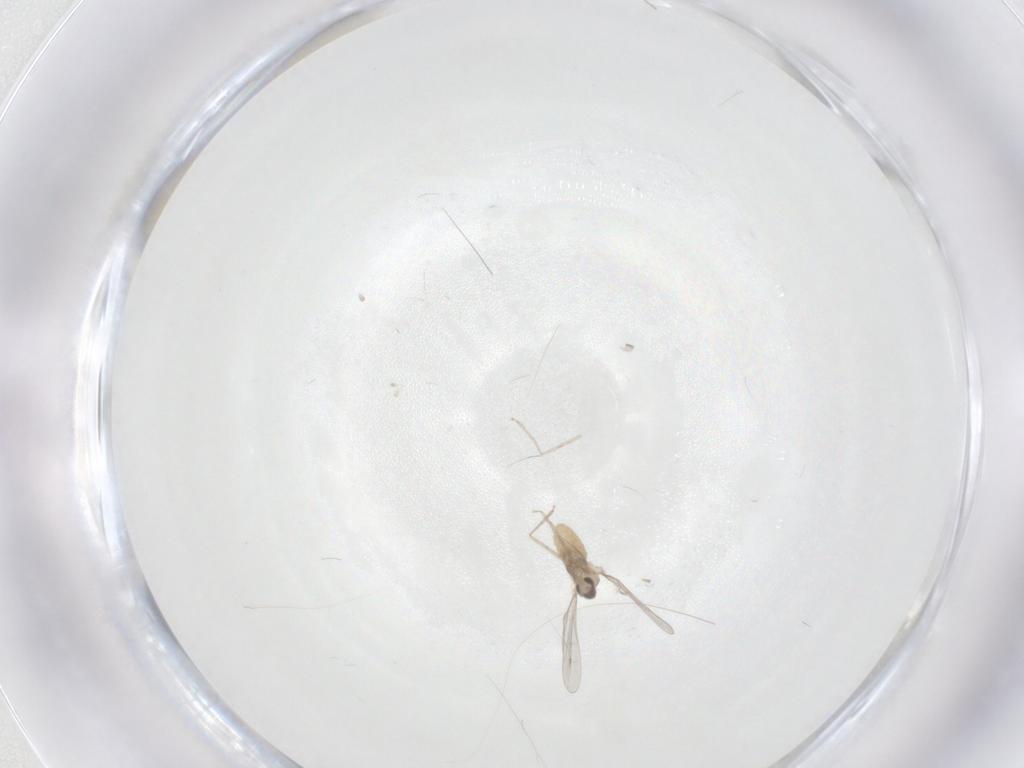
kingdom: Animalia
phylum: Arthropoda
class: Insecta
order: Diptera
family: Cecidomyiidae
